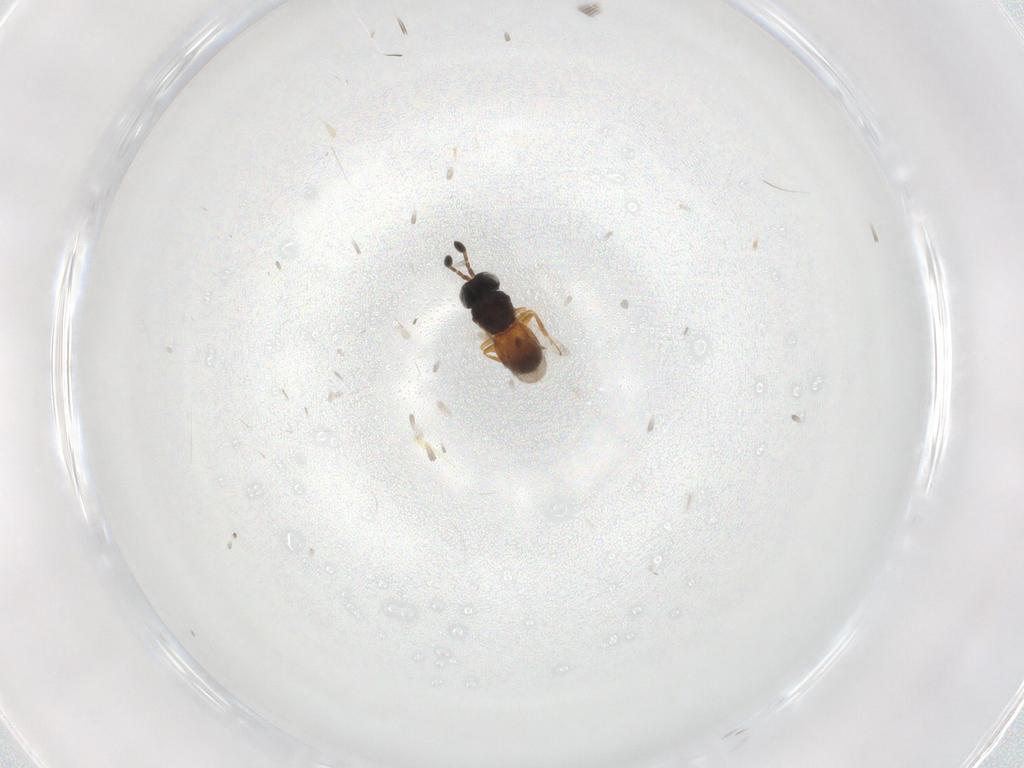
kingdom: Animalia
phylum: Arthropoda
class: Insecta
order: Hymenoptera
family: Scelionidae
